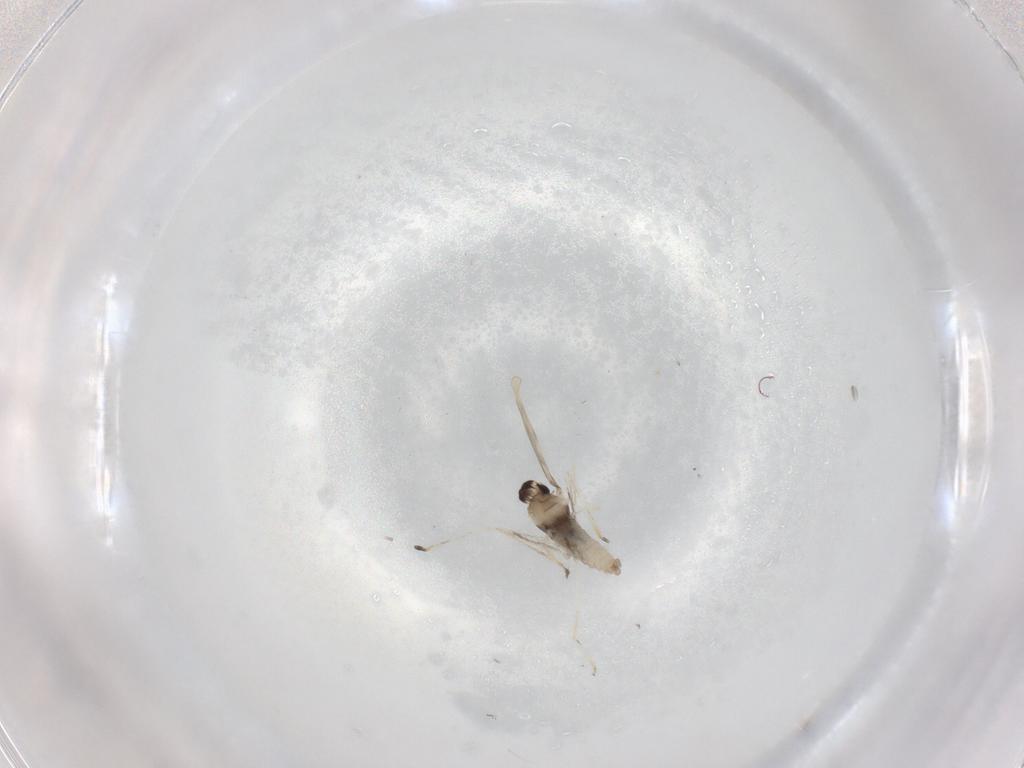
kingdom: Animalia
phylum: Arthropoda
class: Insecta
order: Diptera
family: Cecidomyiidae
